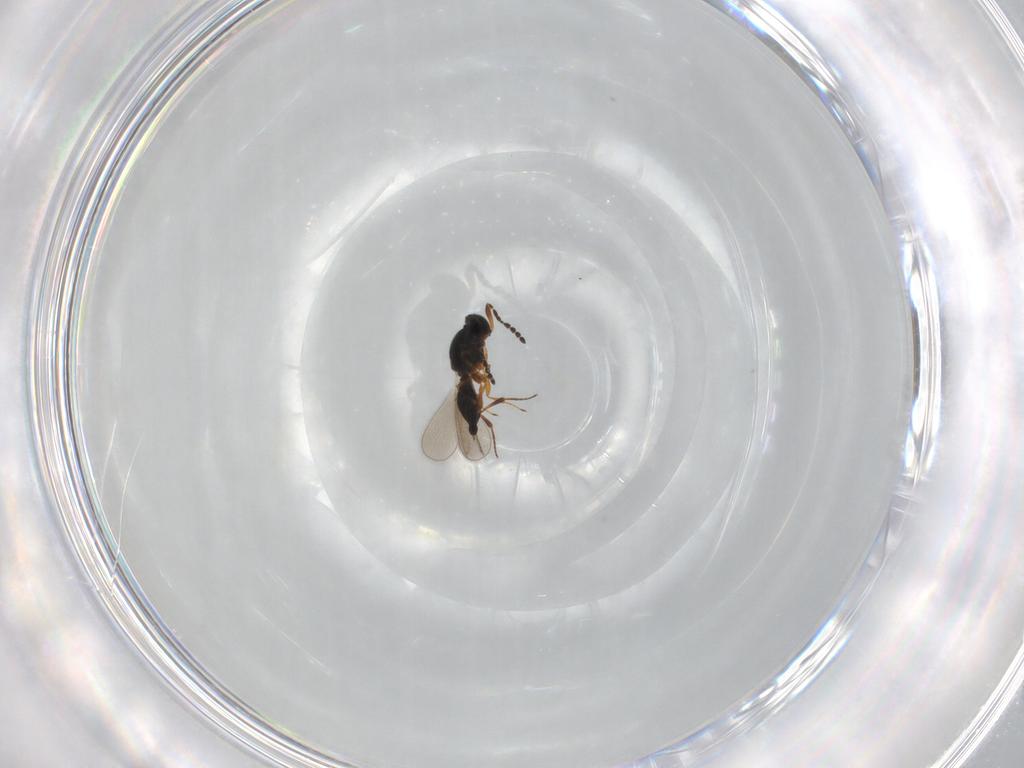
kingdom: Animalia
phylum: Arthropoda
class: Insecta
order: Hymenoptera
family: Platygastridae
